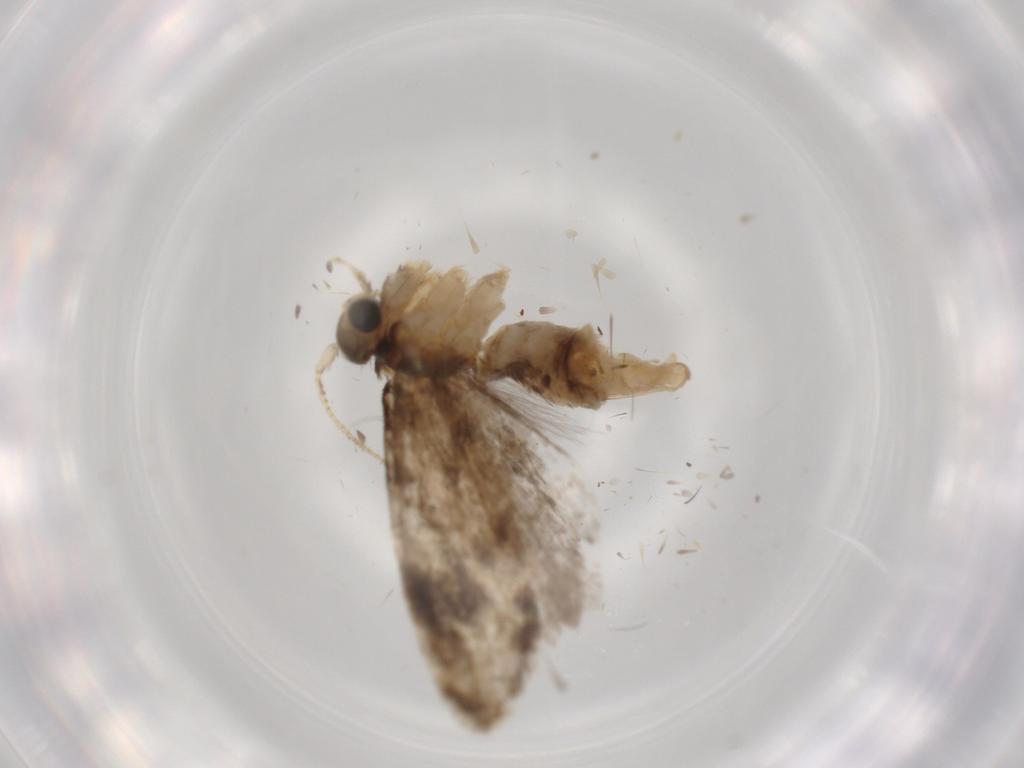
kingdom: Animalia
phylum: Arthropoda
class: Insecta
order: Lepidoptera
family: Tineidae
